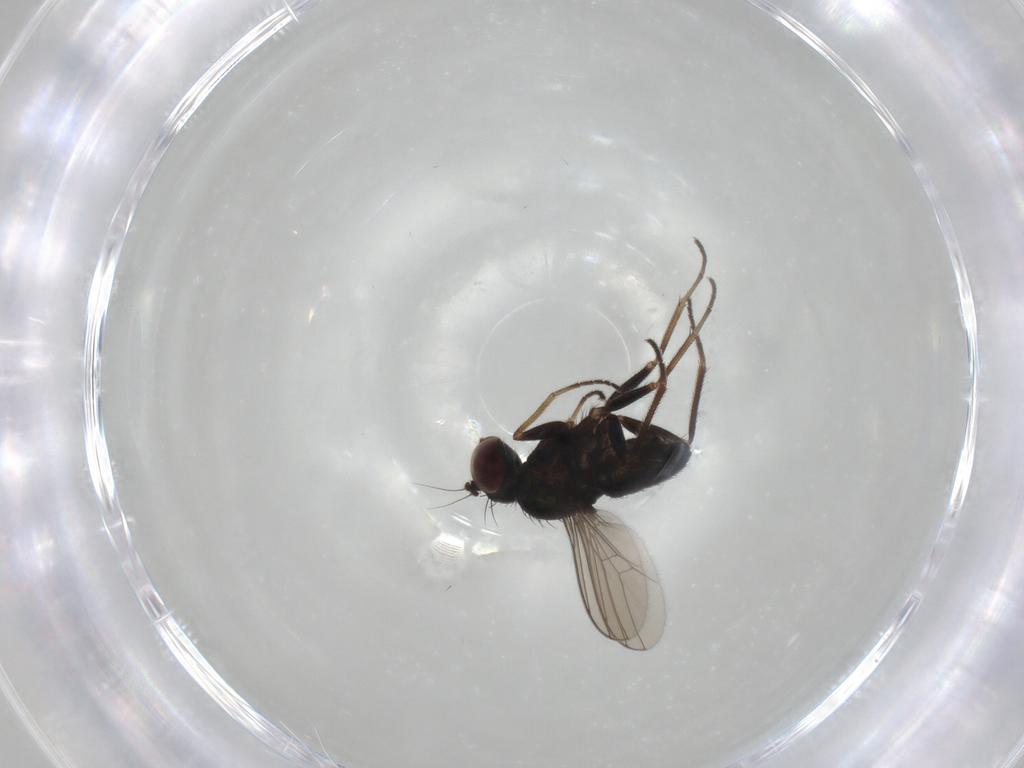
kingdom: Animalia
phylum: Arthropoda
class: Insecta
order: Diptera
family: Dolichopodidae
